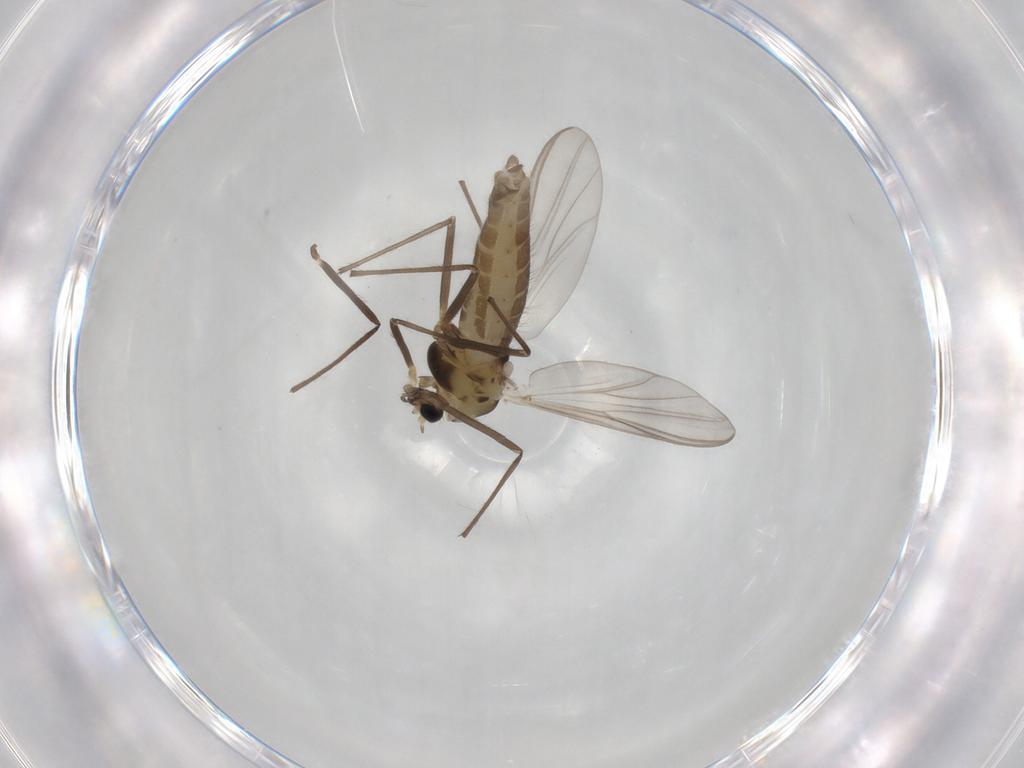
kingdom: Animalia
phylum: Arthropoda
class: Insecta
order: Diptera
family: Chironomidae
